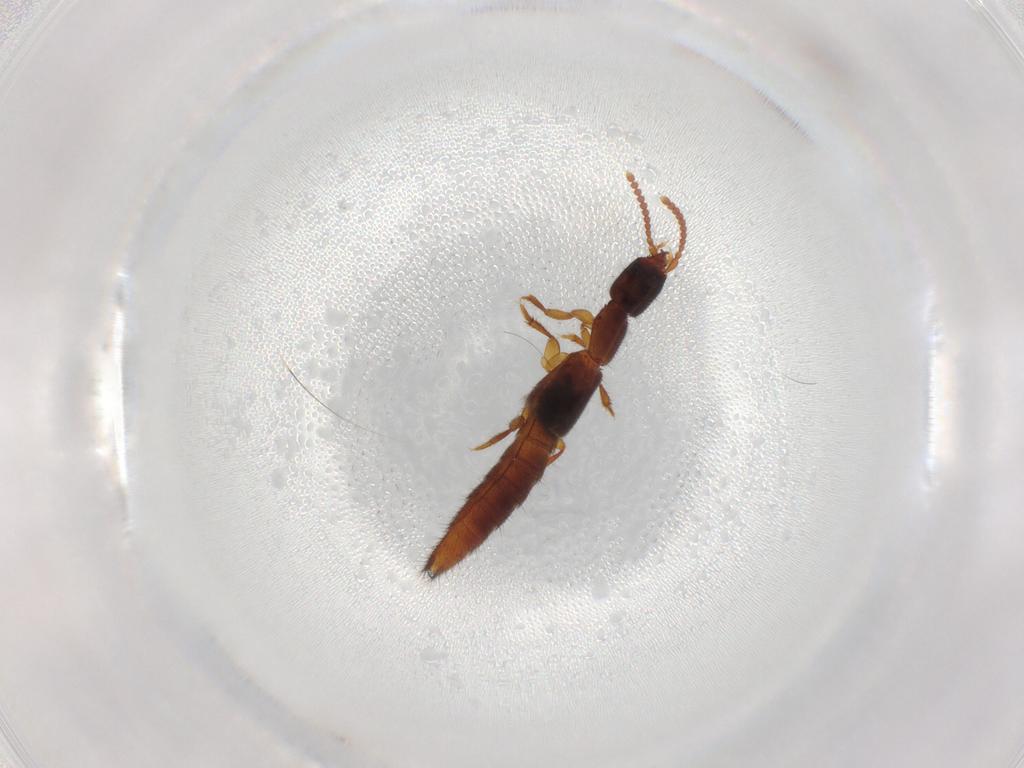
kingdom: Animalia
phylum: Arthropoda
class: Insecta
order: Coleoptera
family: Staphylinidae
